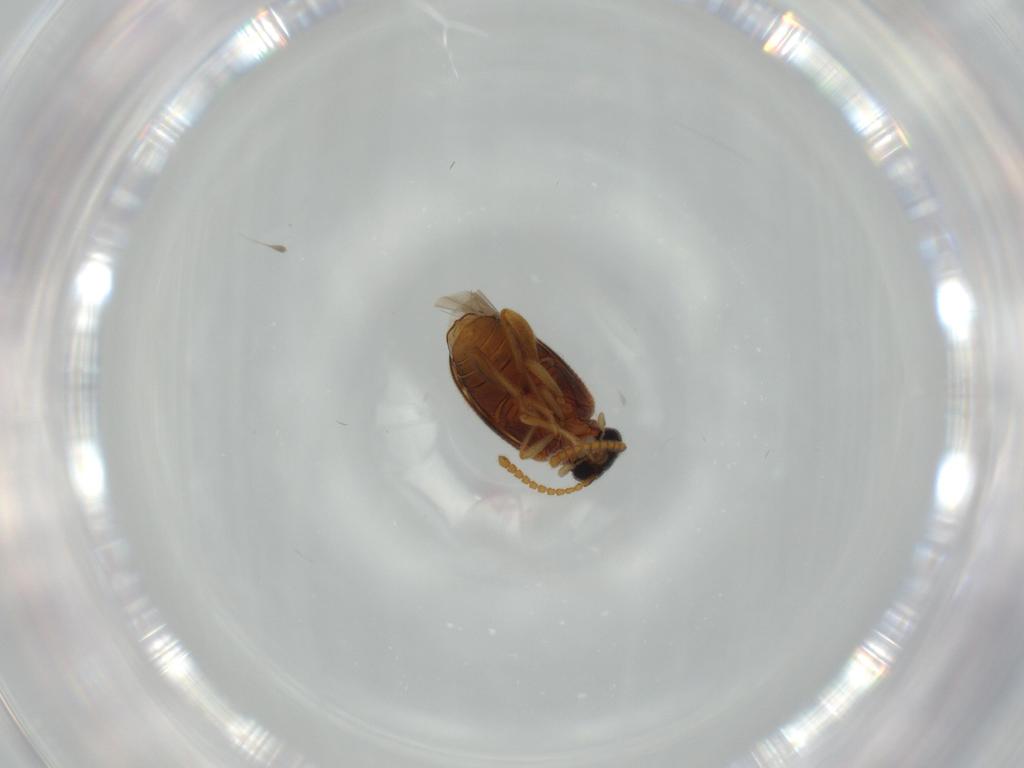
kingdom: Animalia
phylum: Arthropoda
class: Insecta
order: Coleoptera
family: Aderidae
